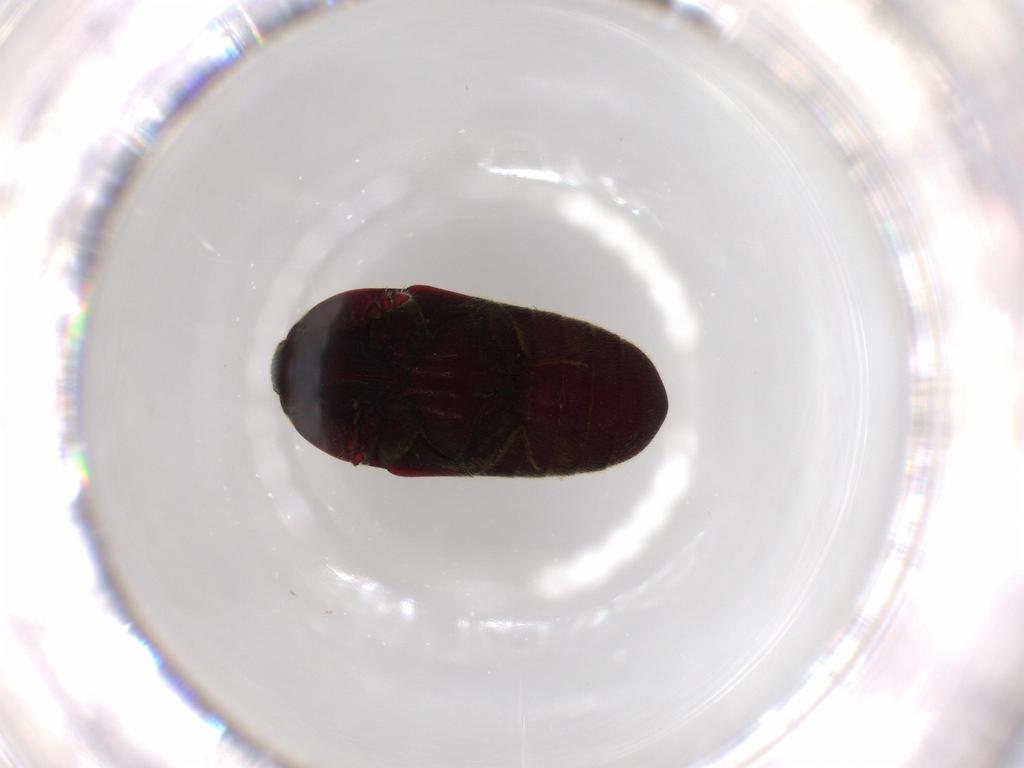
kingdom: Animalia
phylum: Arthropoda
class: Insecta
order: Coleoptera
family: Throscidae
